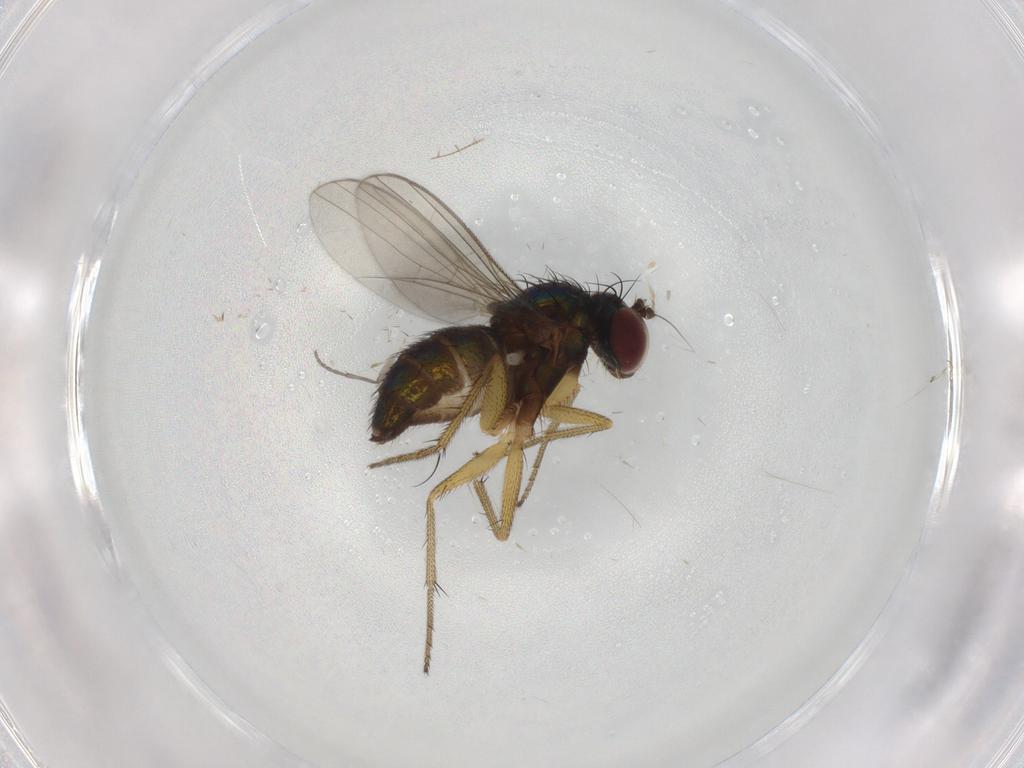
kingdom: Animalia
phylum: Arthropoda
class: Insecta
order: Diptera
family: Sciaridae
